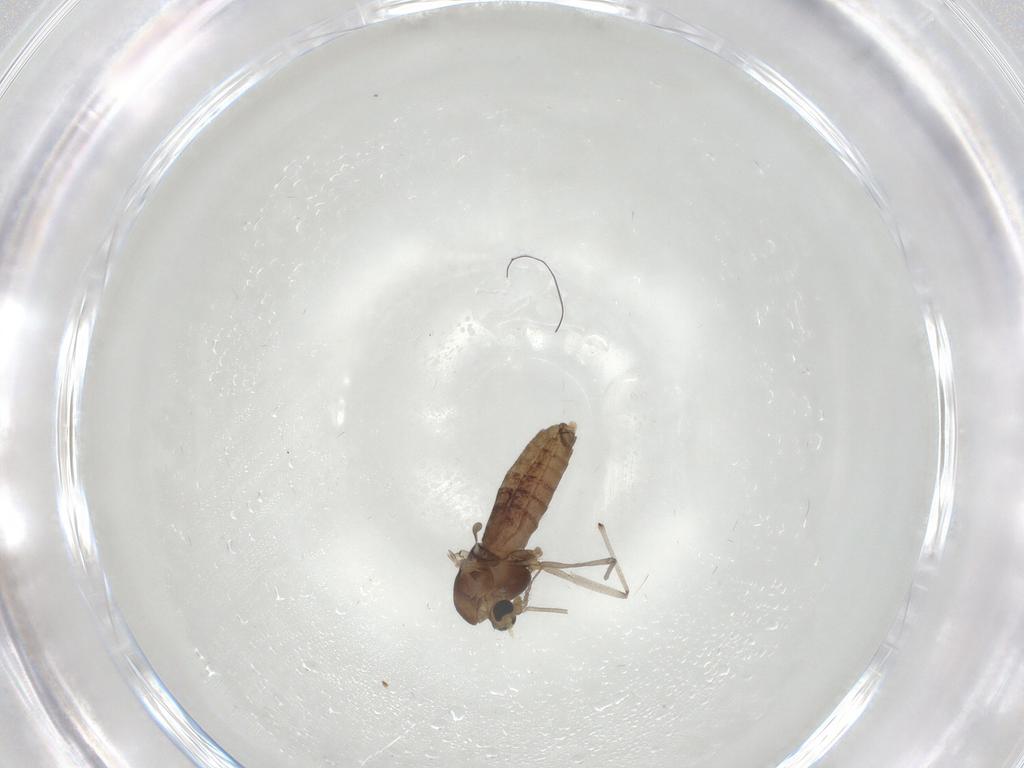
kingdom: Animalia
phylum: Arthropoda
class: Insecta
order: Diptera
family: Chironomidae
